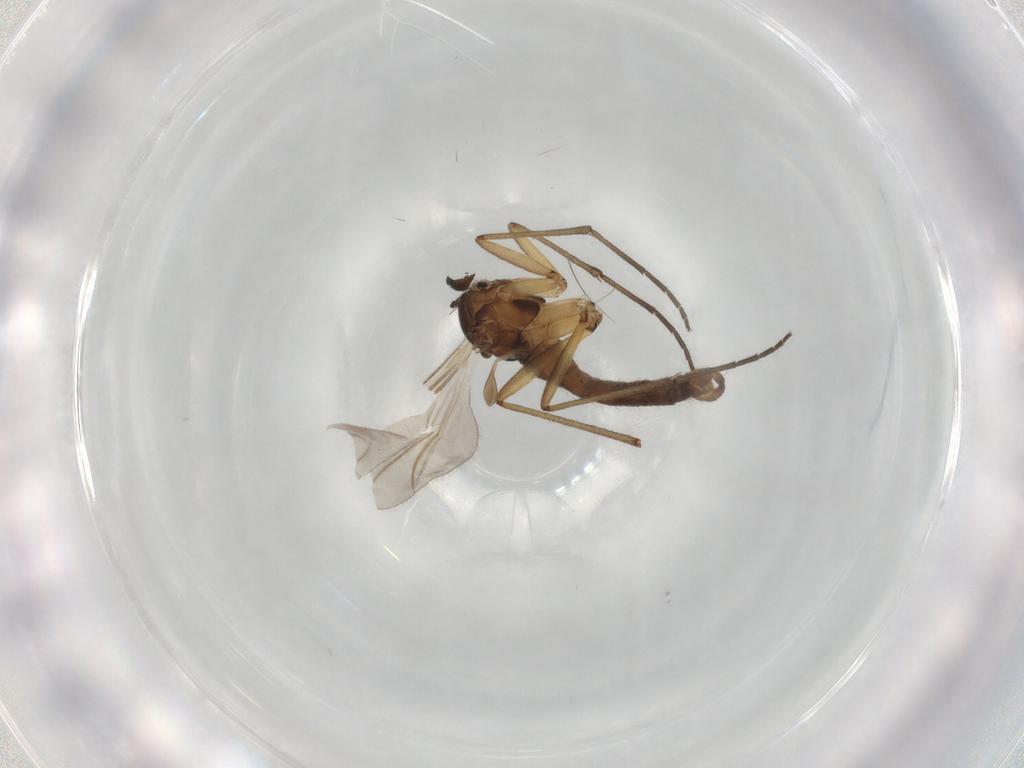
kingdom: Animalia
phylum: Arthropoda
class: Insecta
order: Diptera
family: Sciaridae
